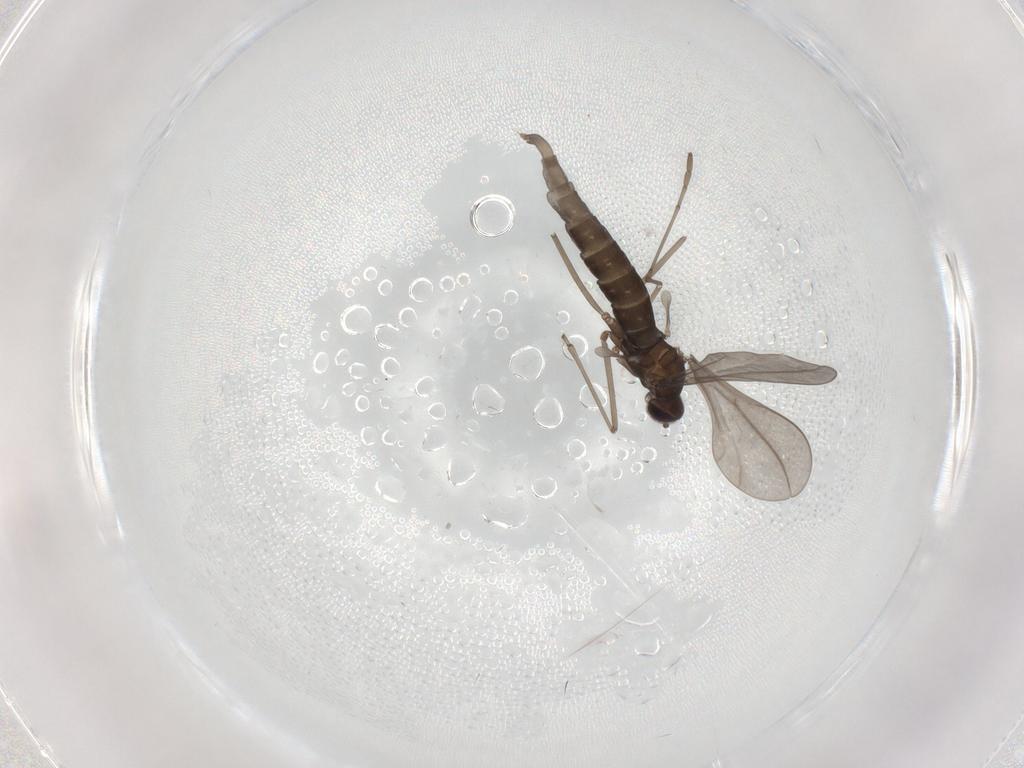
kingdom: Animalia
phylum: Arthropoda
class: Insecta
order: Diptera
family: Cecidomyiidae
